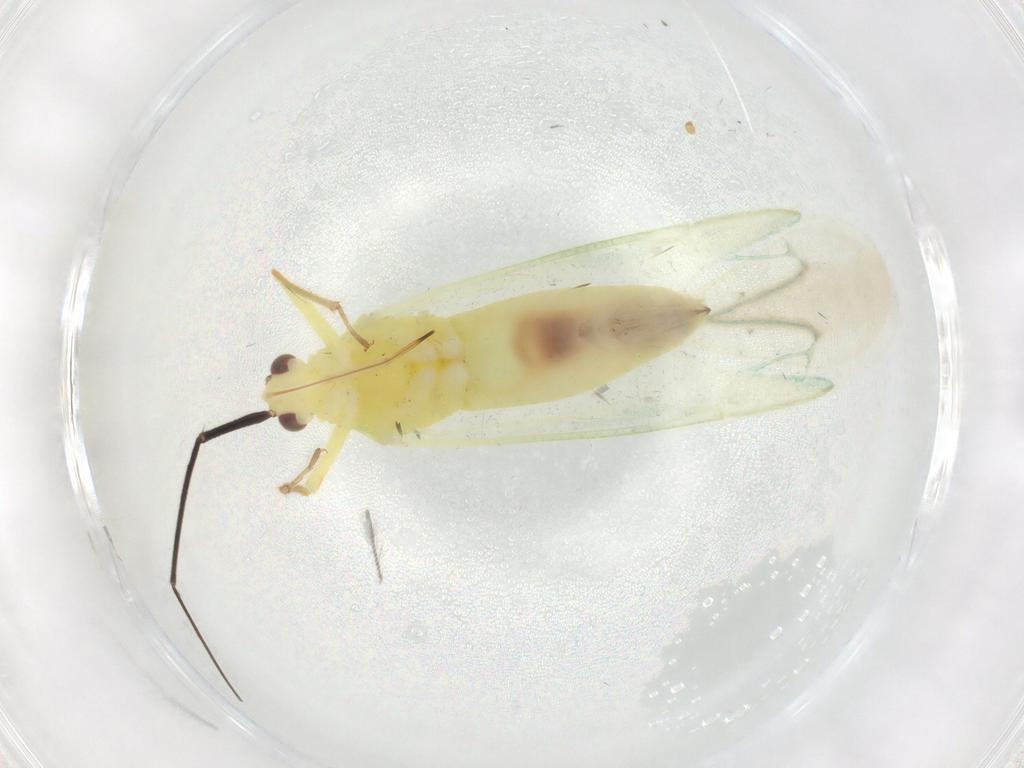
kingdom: Animalia
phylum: Arthropoda
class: Insecta
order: Hemiptera
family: Miridae
